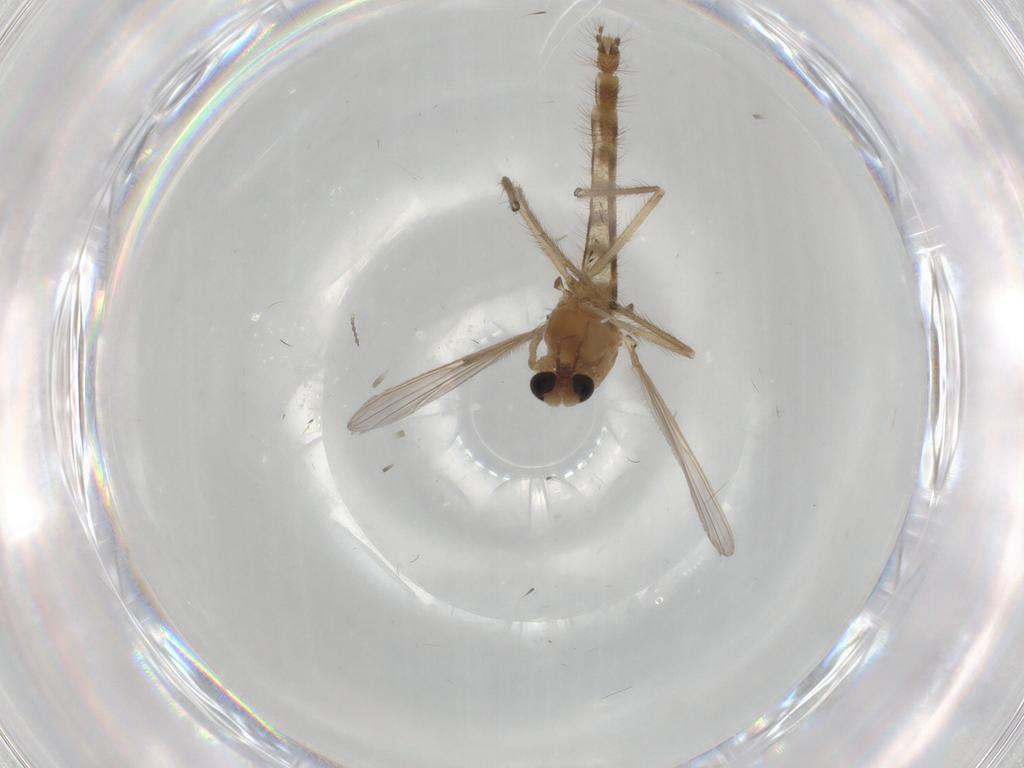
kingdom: Animalia
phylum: Arthropoda
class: Insecta
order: Diptera
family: Chironomidae
